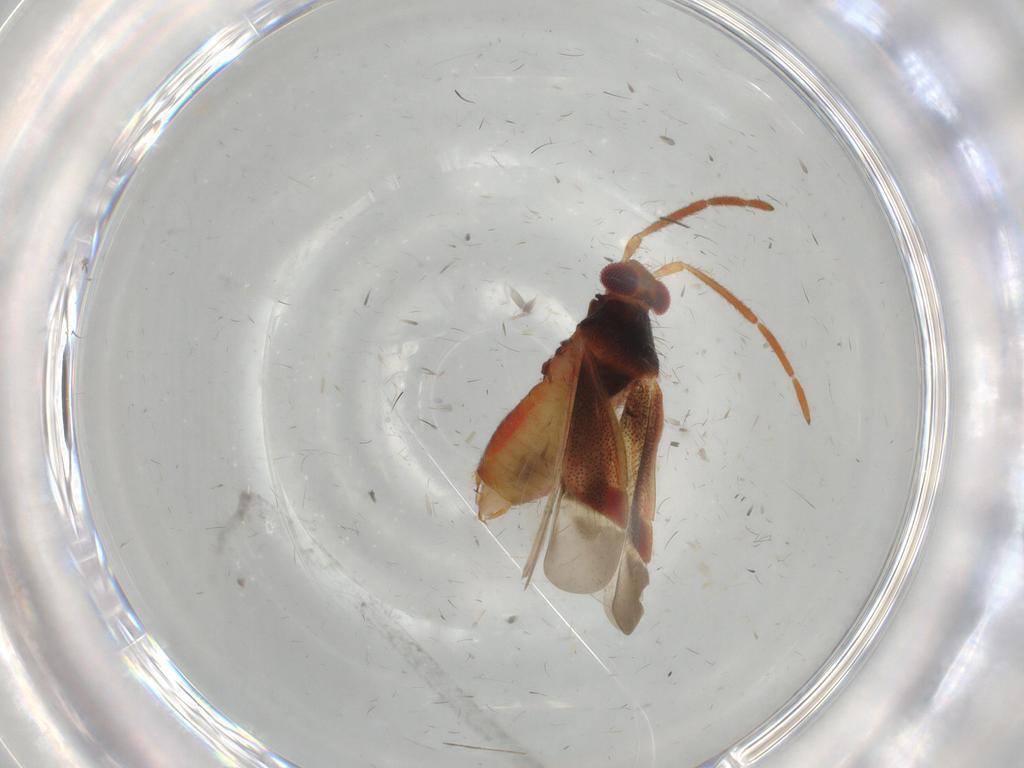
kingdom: Animalia
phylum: Arthropoda
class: Insecta
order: Hemiptera
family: Miridae
